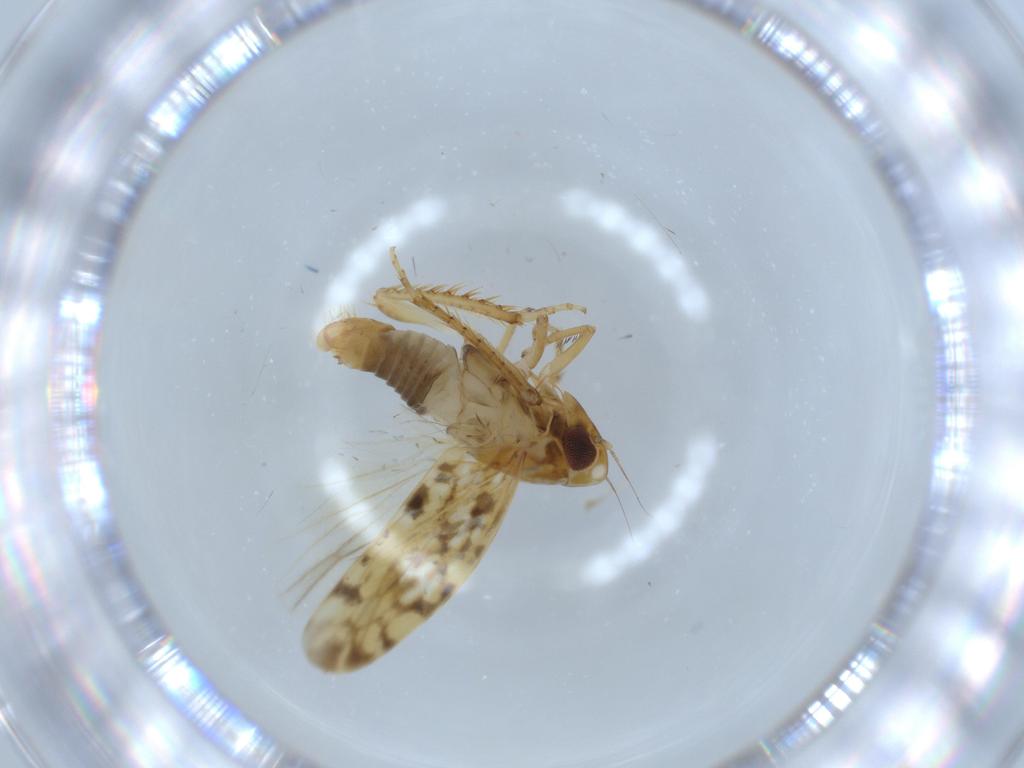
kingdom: Animalia
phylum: Arthropoda
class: Insecta
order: Hemiptera
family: Cicadellidae
